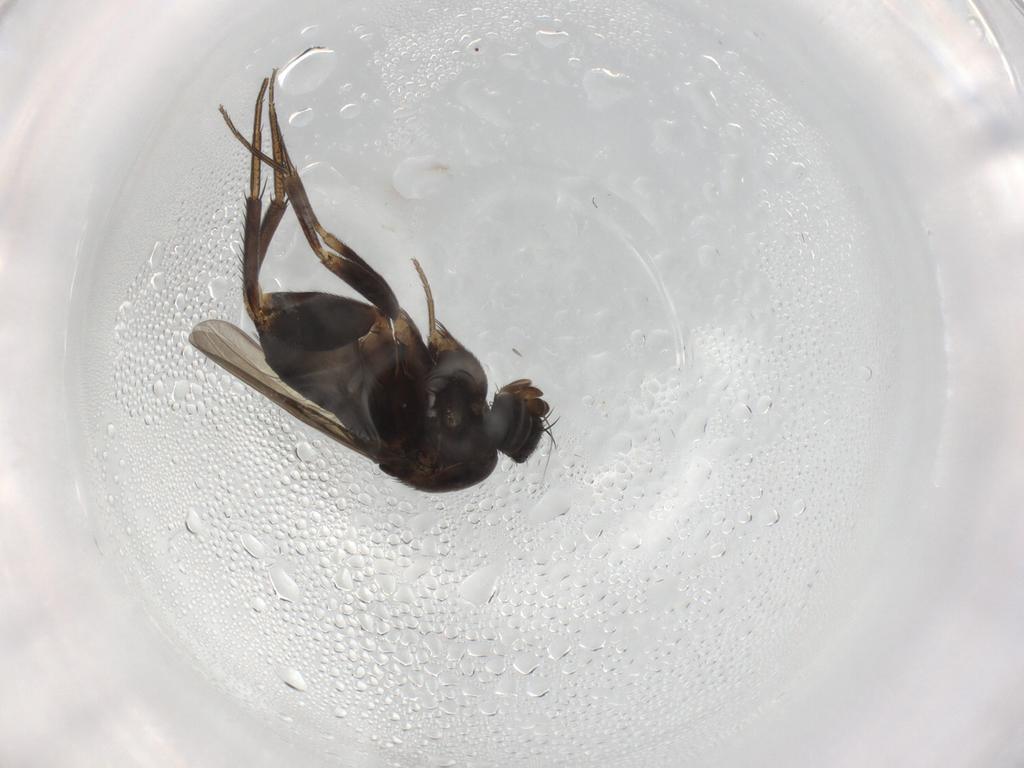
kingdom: Animalia
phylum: Arthropoda
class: Insecta
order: Diptera
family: Phoridae
